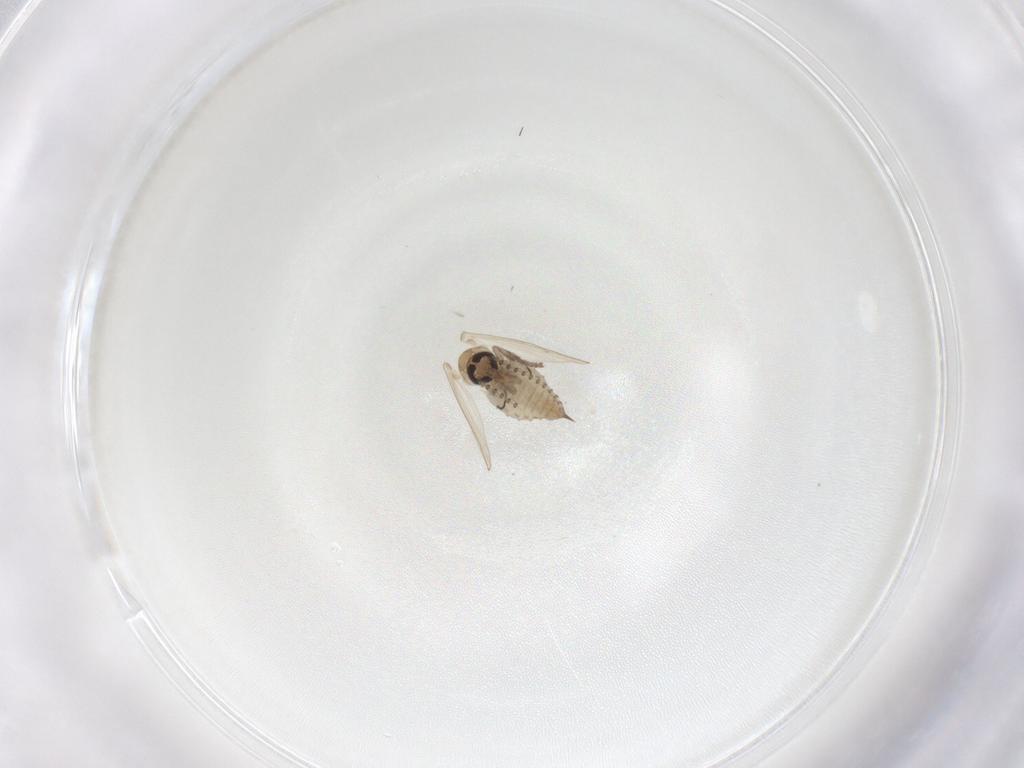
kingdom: Animalia
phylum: Arthropoda
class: Insecta
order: Diptera
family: Psychodidae
